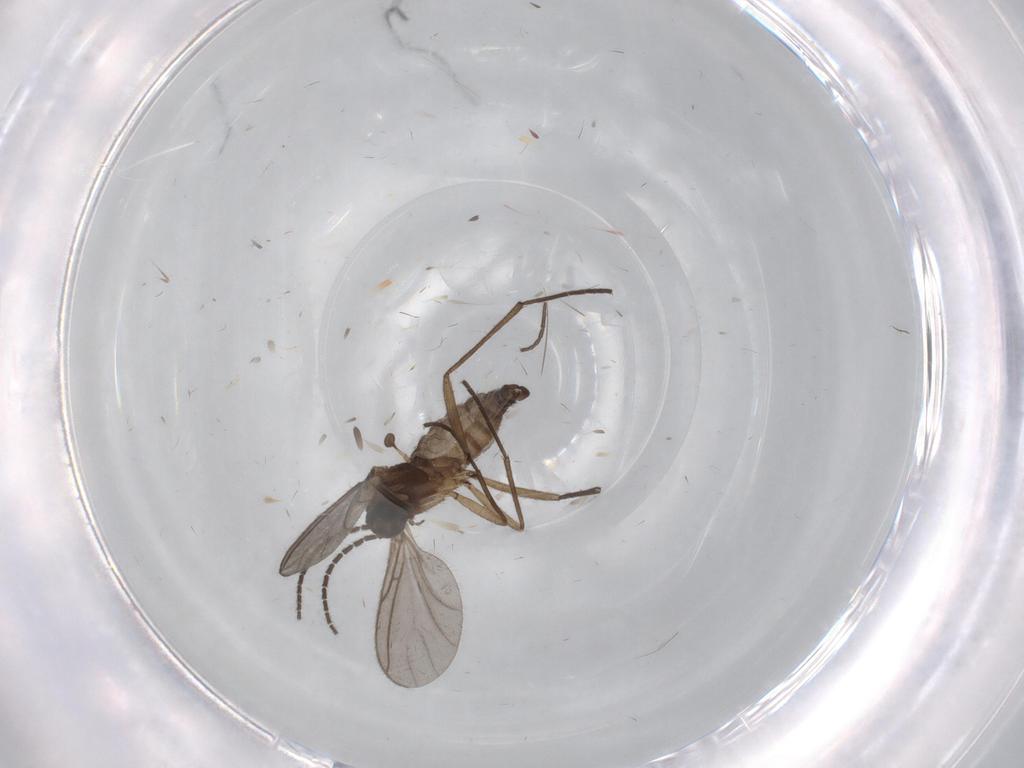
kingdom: Animalia
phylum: Arthropoda
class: Insecta
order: Diptera
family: Sciaridae
